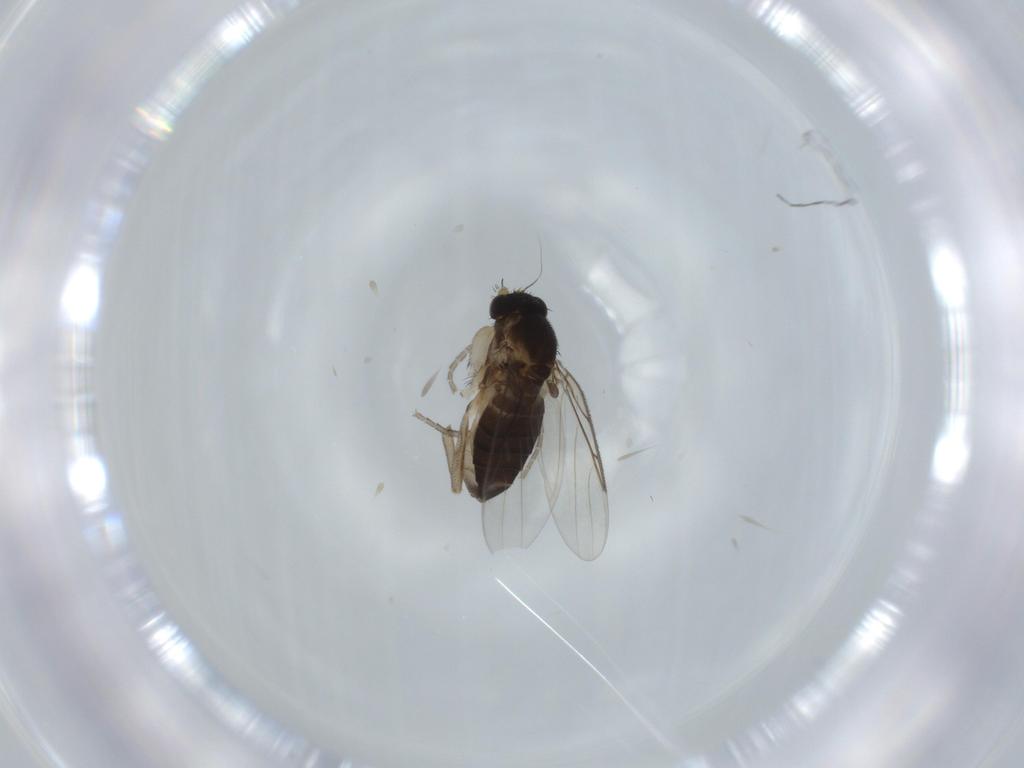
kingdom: Animalia
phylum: Arthropoda
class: Insecta
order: Diptera
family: Phoridae
